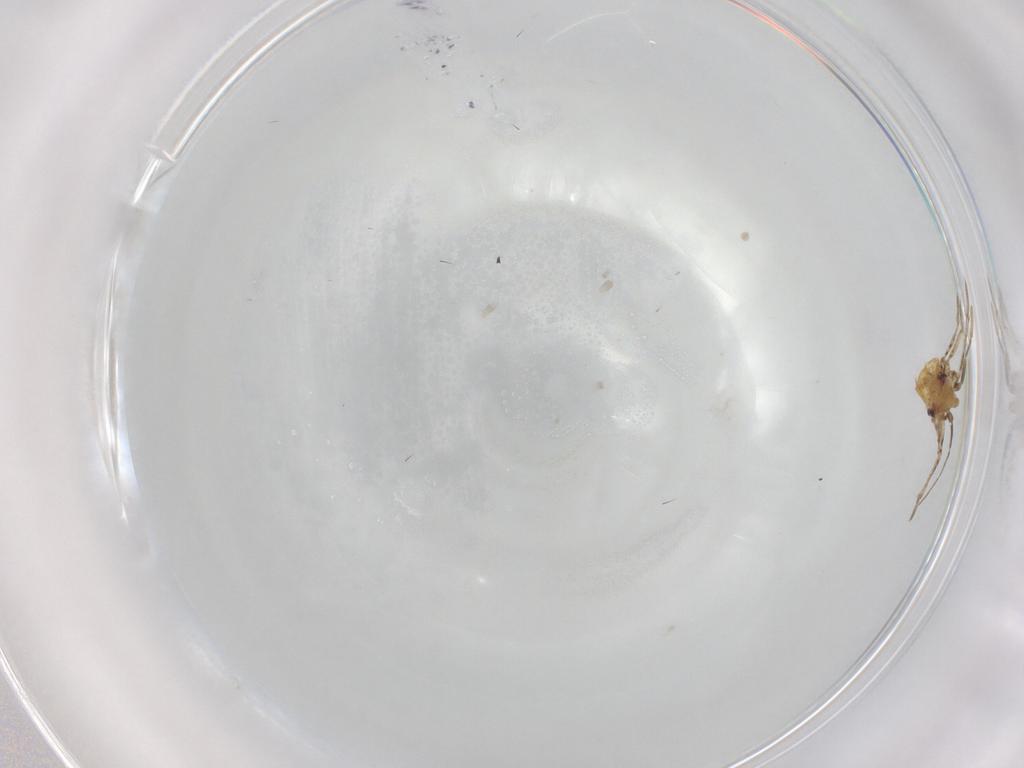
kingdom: Animalia
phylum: Arthropoda
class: Insecta
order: Diptera
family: Cecidomyiidae
